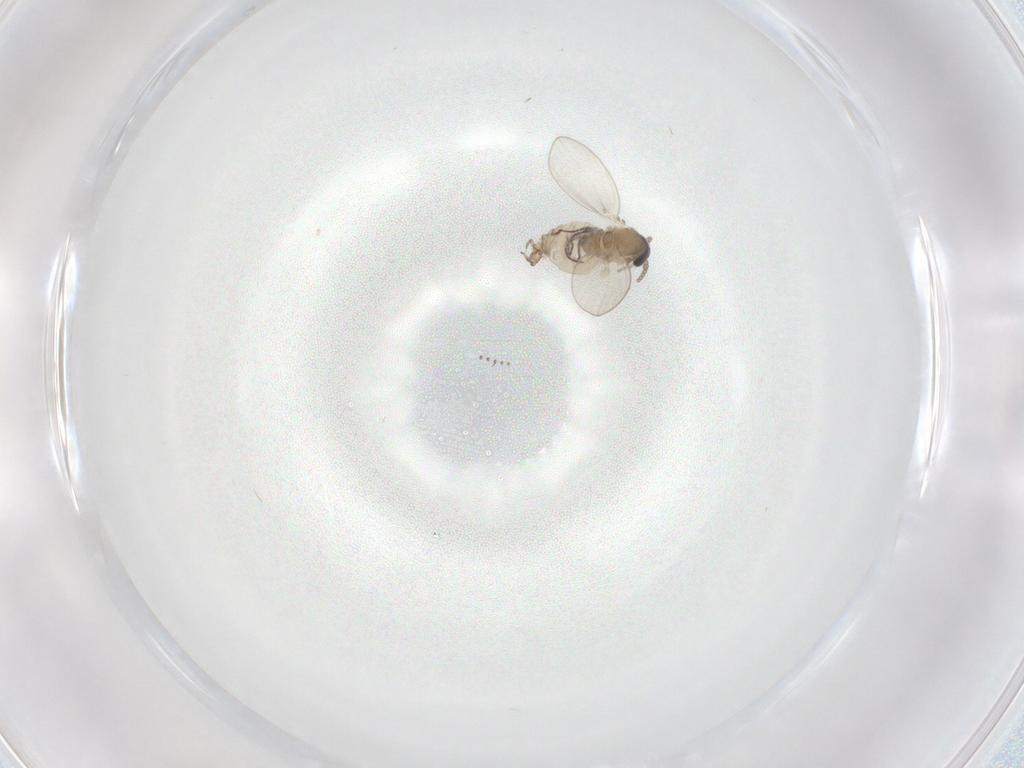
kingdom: Animalia
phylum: Arthropoda
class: Insecta
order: Diptera
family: Psychodidae
